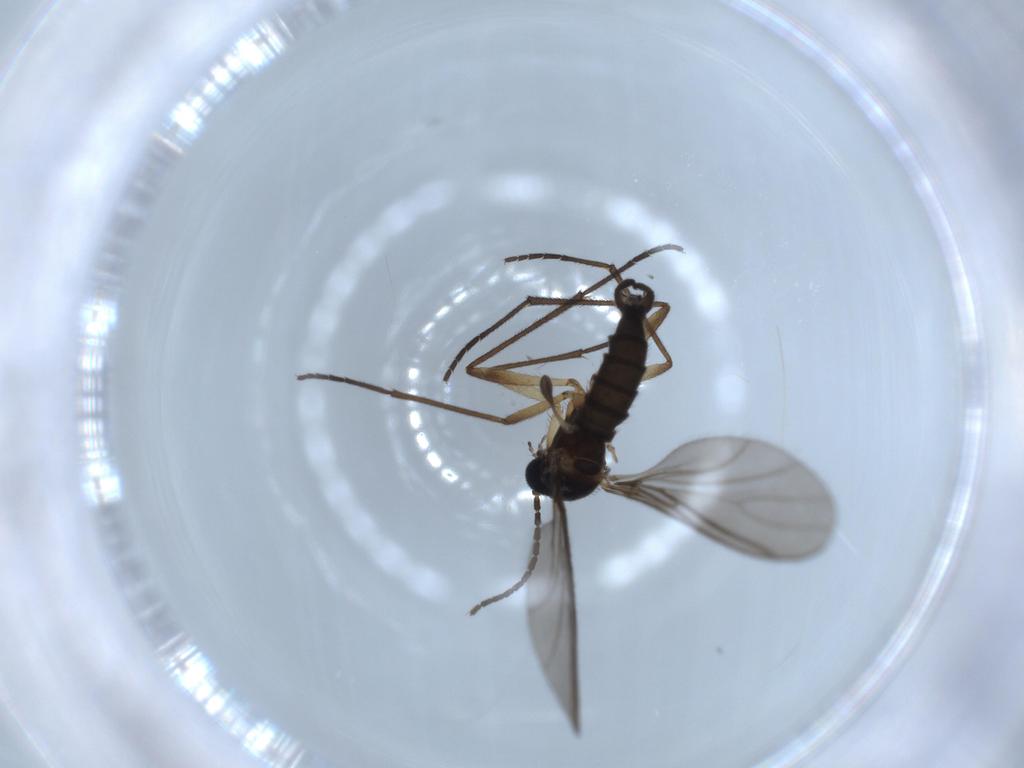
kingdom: Animalia
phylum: Arthropoda
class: Insecta
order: Diptera
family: Sciaridae
